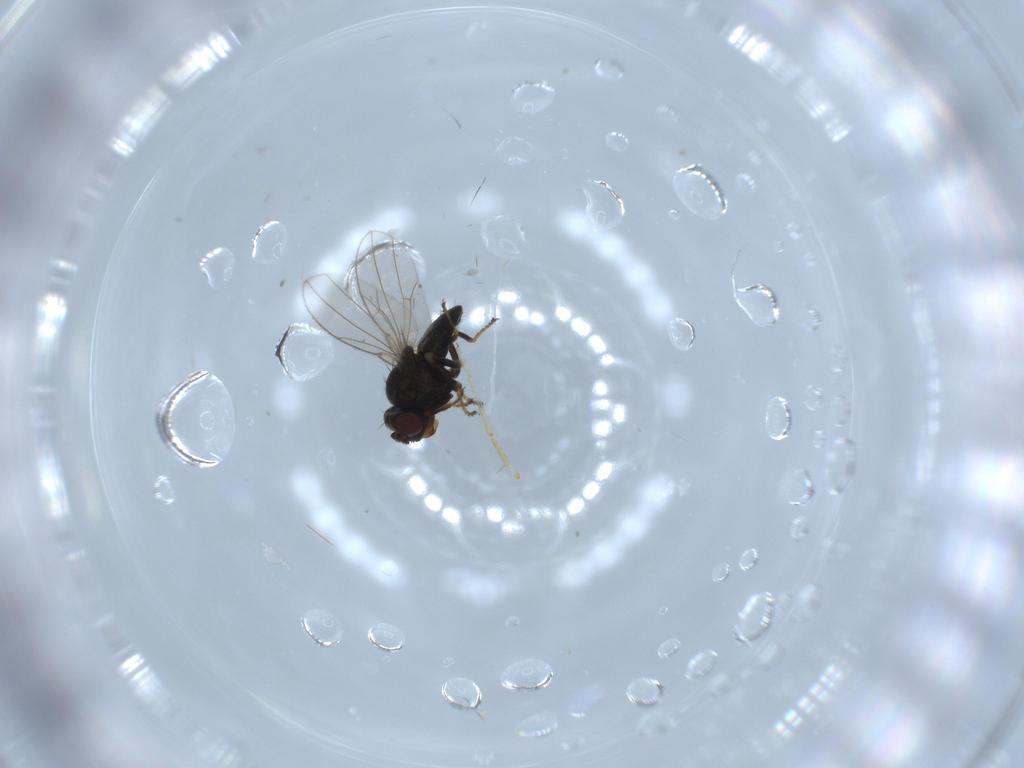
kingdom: Animalia
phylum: Arthropoda
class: Insecta
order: Diptera
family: Ephydridae
